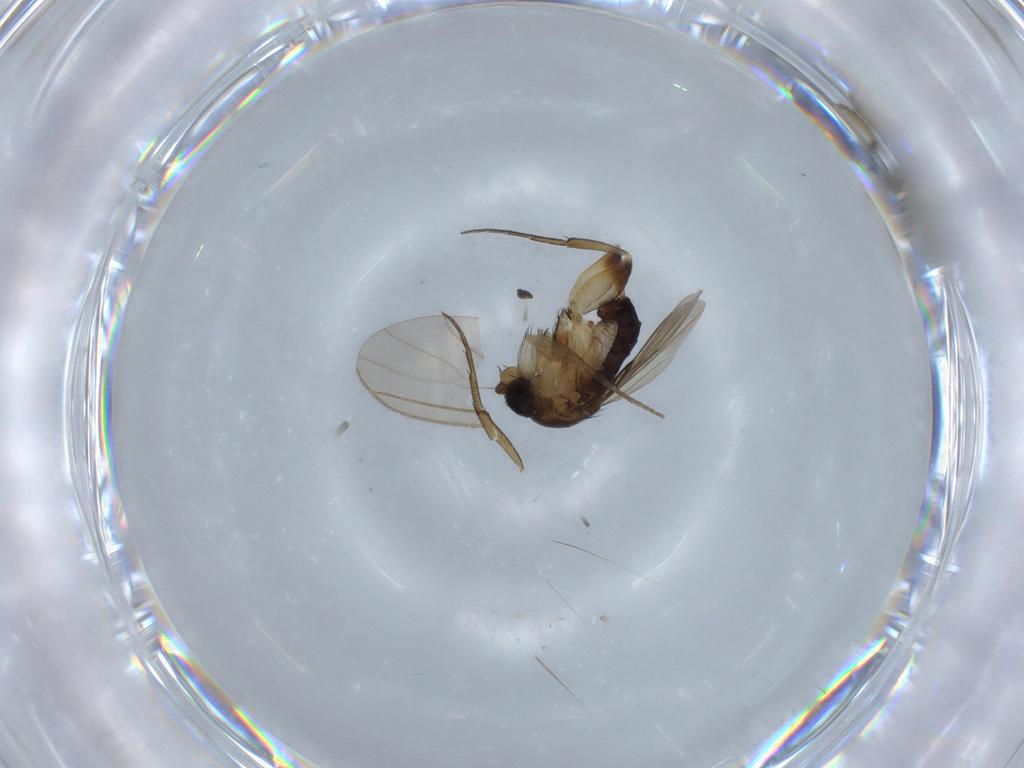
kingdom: Animalia
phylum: Arthropoda
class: Insecta
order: Diptera
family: Phoridae
